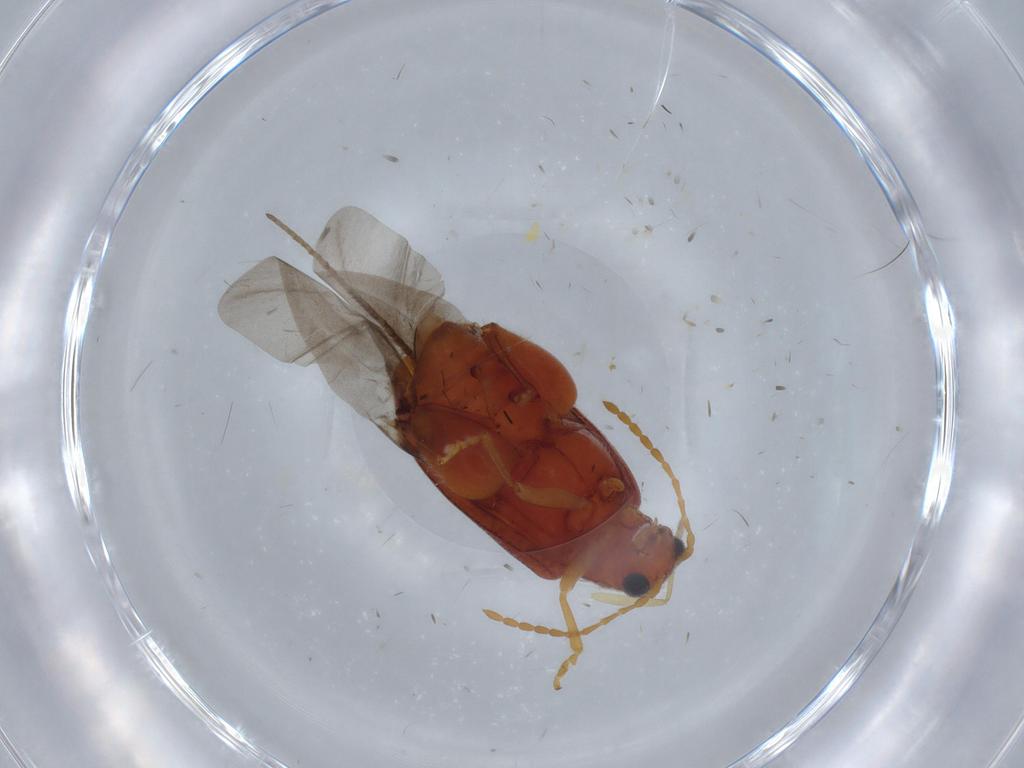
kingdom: Animalia
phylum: Arthropoda
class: Insecta
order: Coleoptera
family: Chrysomelidae
